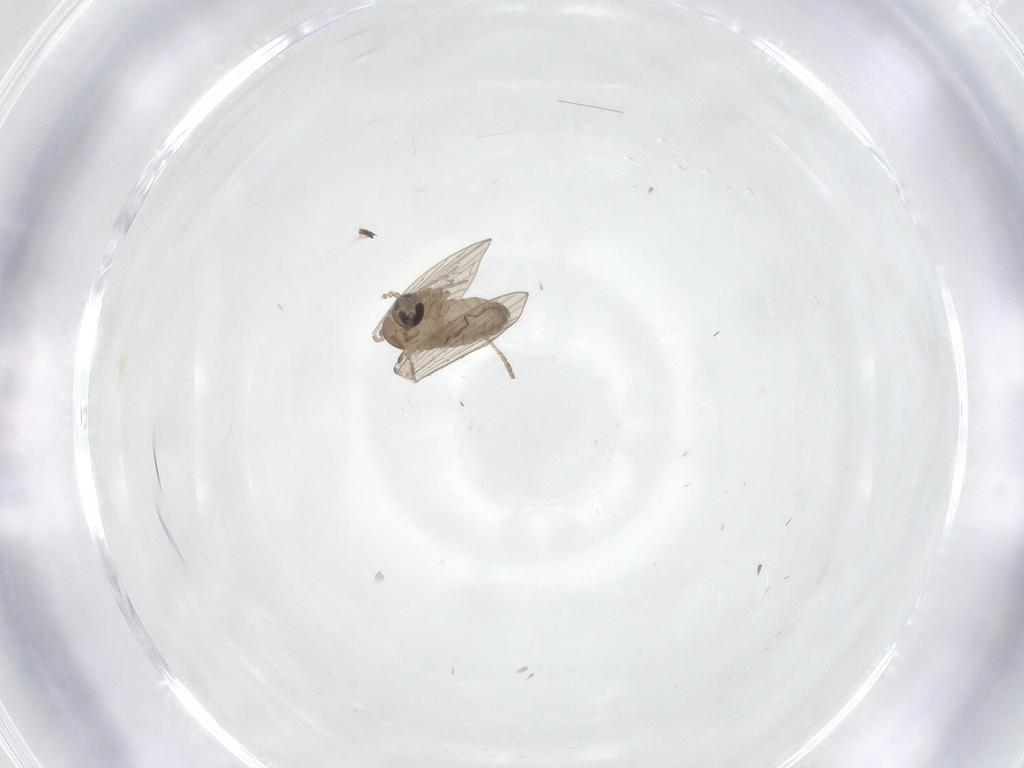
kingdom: Animalia
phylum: Arthropoda
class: Insecta
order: Diptera
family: Psychodidae
